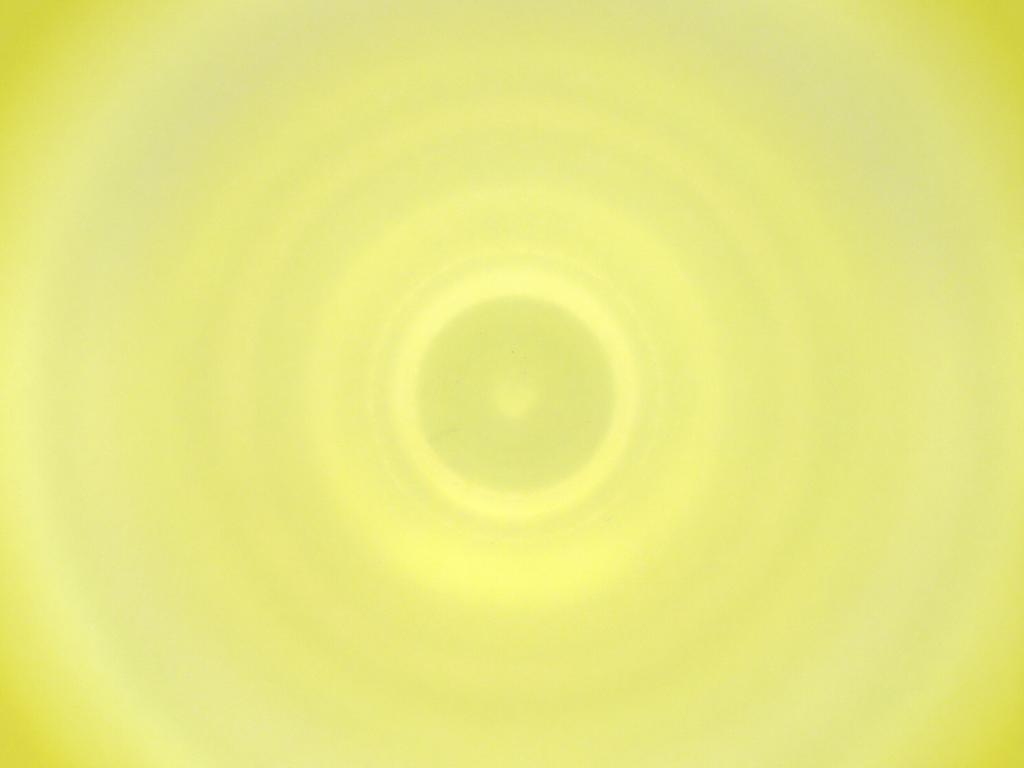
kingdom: Animalia
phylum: Arthropoda
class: Insecta
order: Diptera
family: Cecidomyiidae
